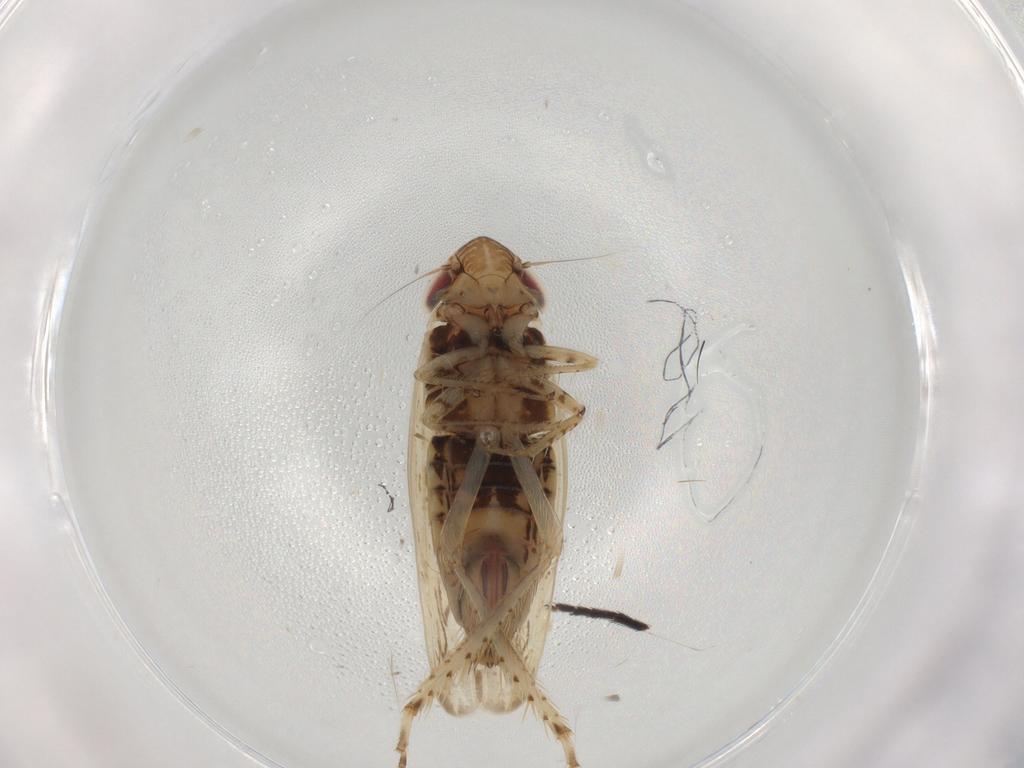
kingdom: Animalia
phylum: Arthropoda
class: Insecta
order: Hemiptera
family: Cicadellidae
